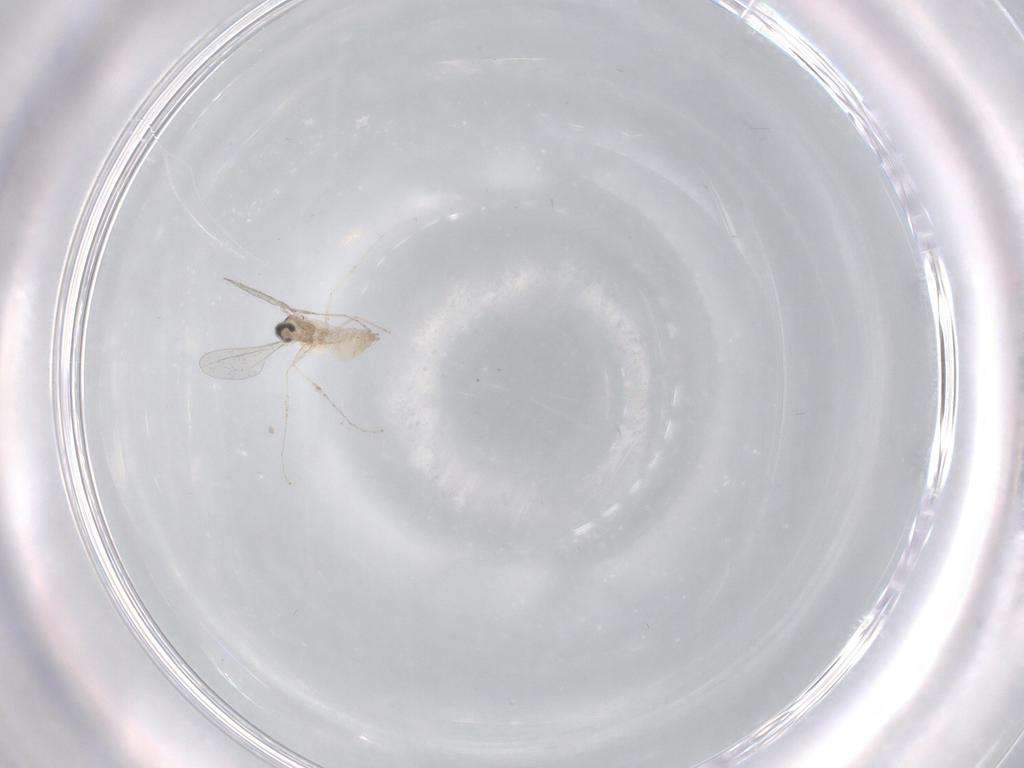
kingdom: Animalia
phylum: Arthropoda
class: Insecta
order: Diptera
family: Cecidomyiidae
